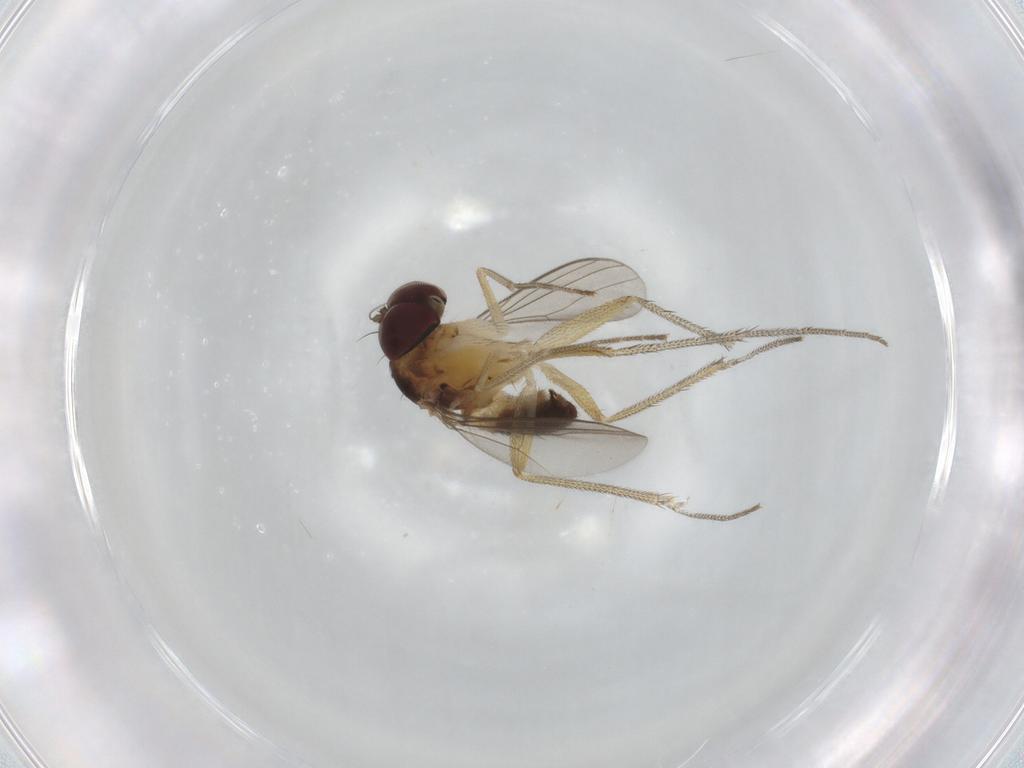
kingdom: Animalia
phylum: Arthropoda
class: Insecta
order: Diptera
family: Dolichopodidae
